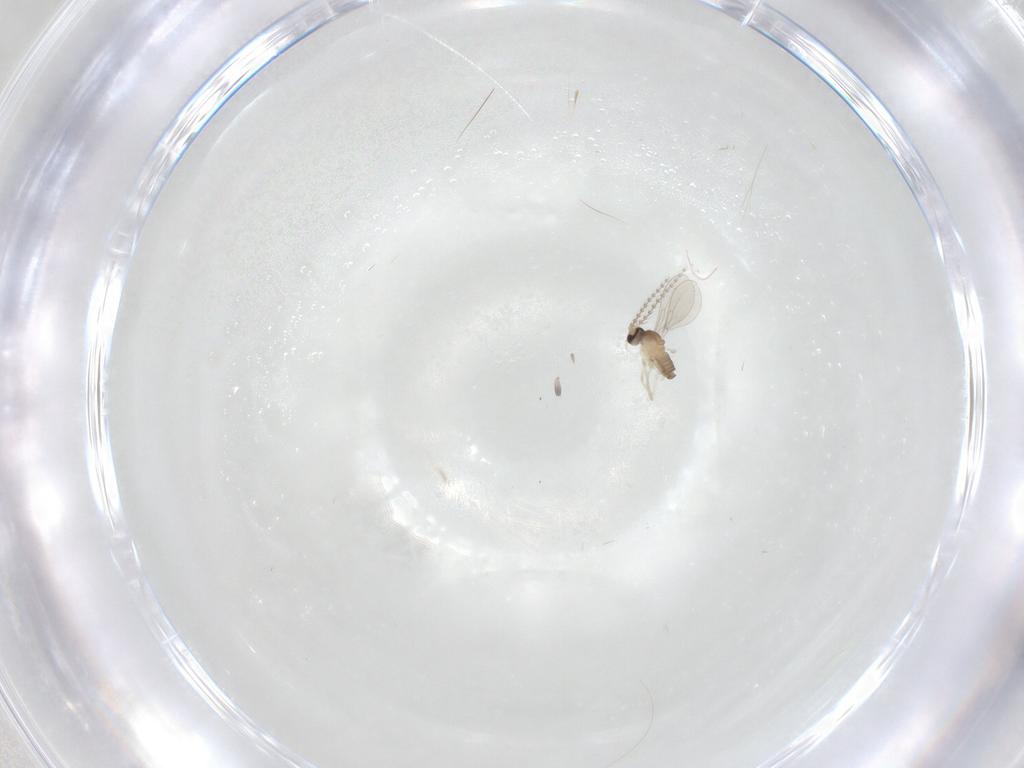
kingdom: Animalia
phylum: Arthropoda
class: Insecta
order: Diptera
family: Cecidomyiidae
